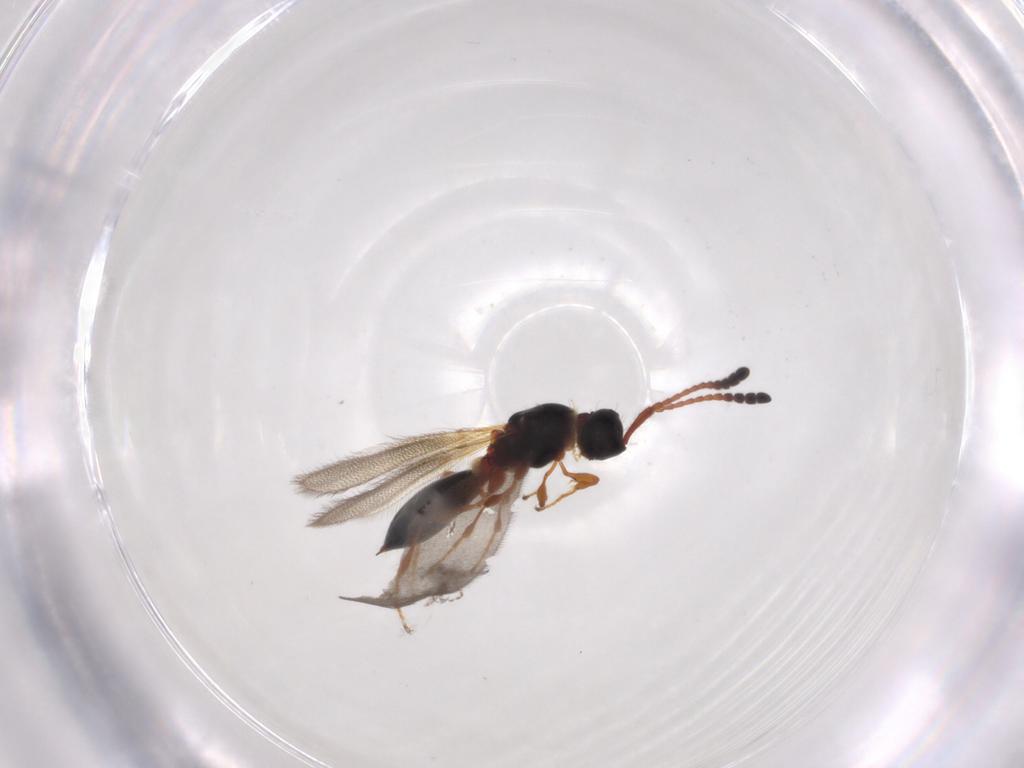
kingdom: Animalia
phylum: Arthropoda
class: Insecta
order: Hymenoptera
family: Diapriidae
